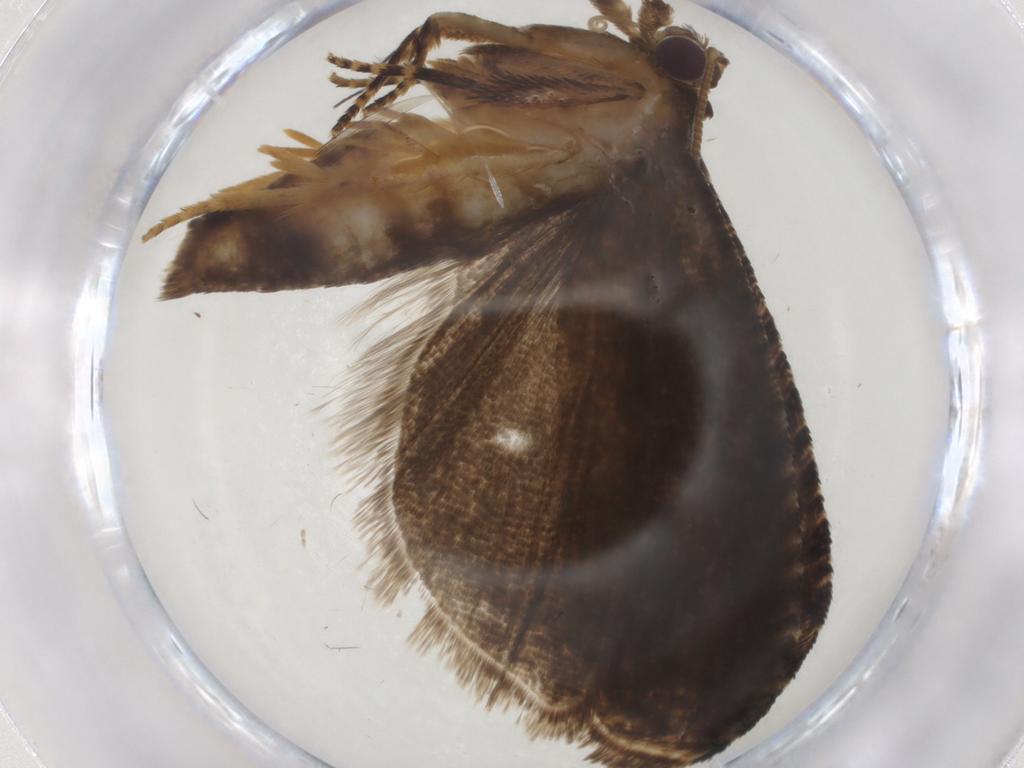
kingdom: Animalia
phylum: Arthropoda
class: Insecta
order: Lepidoptera
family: Tortricidae
